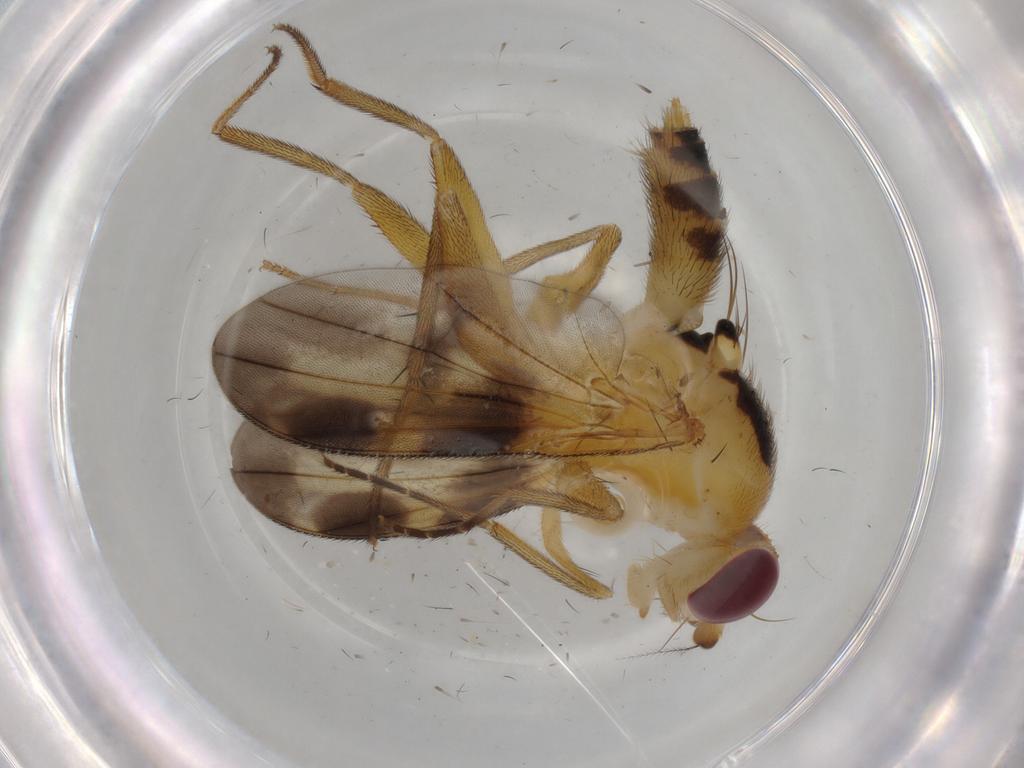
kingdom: Animalia
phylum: Arthropoda
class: Insecta
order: Diptera
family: Clusiidae
